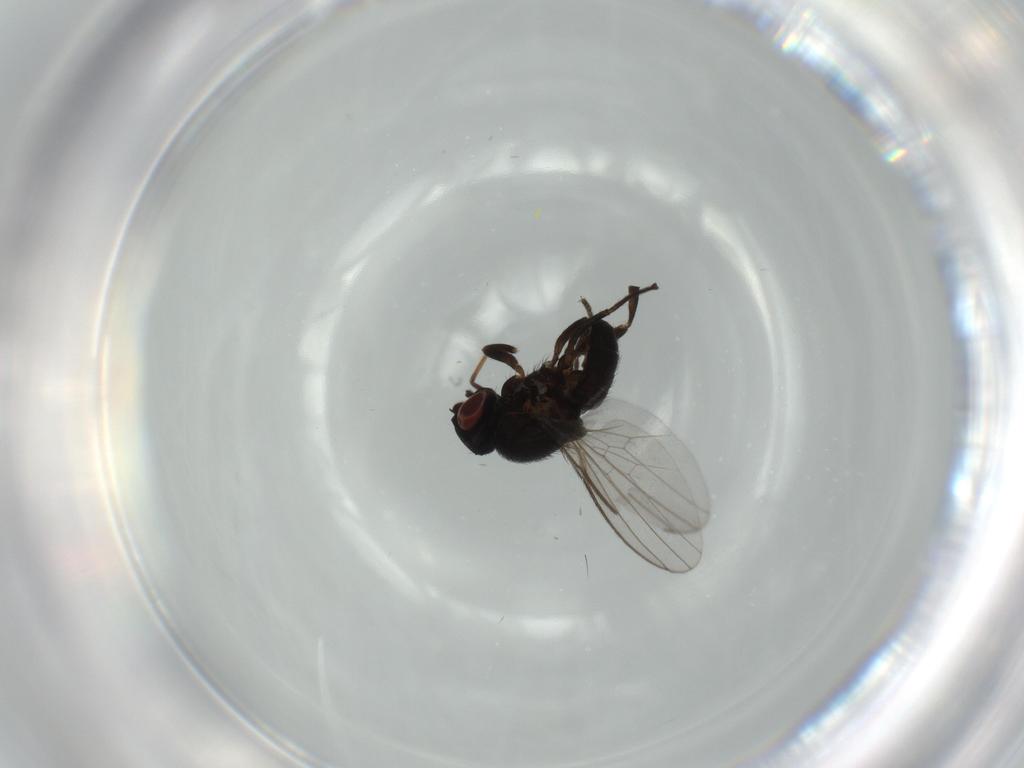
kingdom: Animalia
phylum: Arthropoda
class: Insecta
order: Diptera
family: Milichiidae
